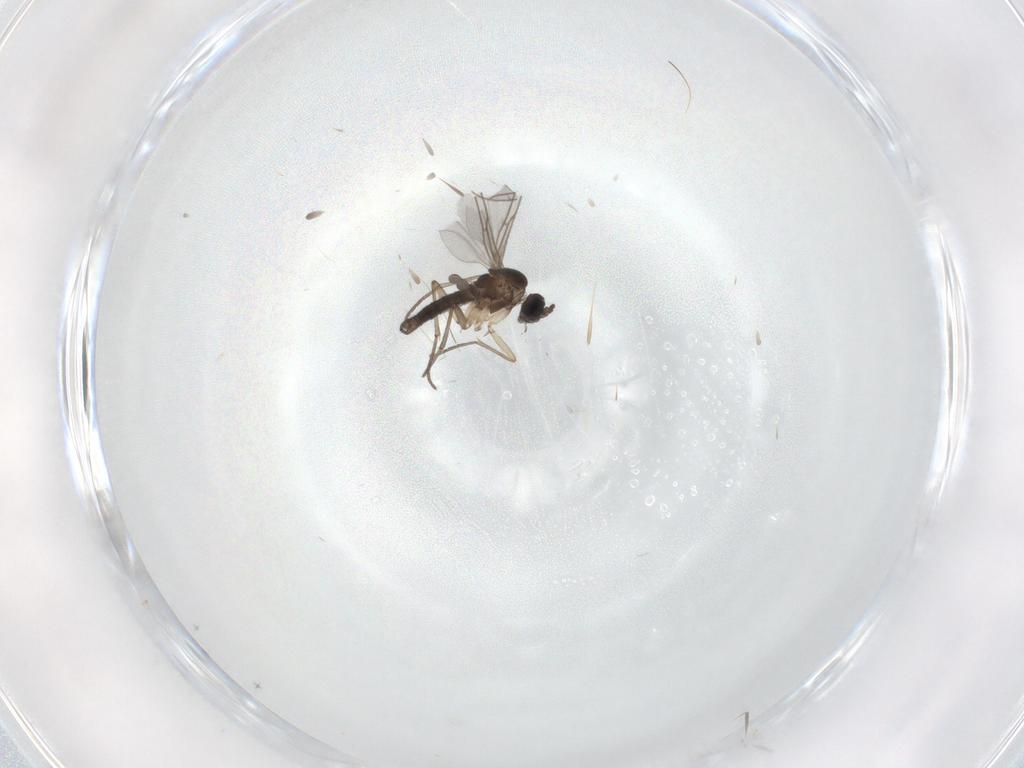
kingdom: Animalia
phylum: Arthropoda
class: Insecta
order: Diptera
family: Sciaridae
